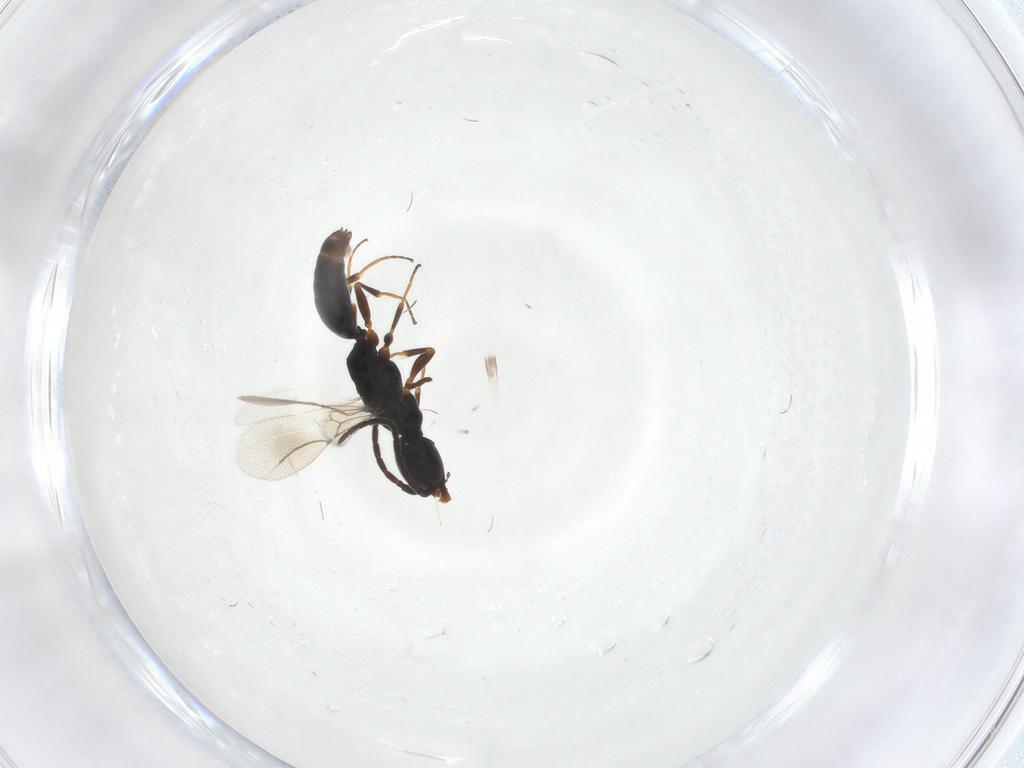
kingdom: Animalia
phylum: Arthropoda
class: Insecta
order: Hymenoptera
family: Bethylidae
